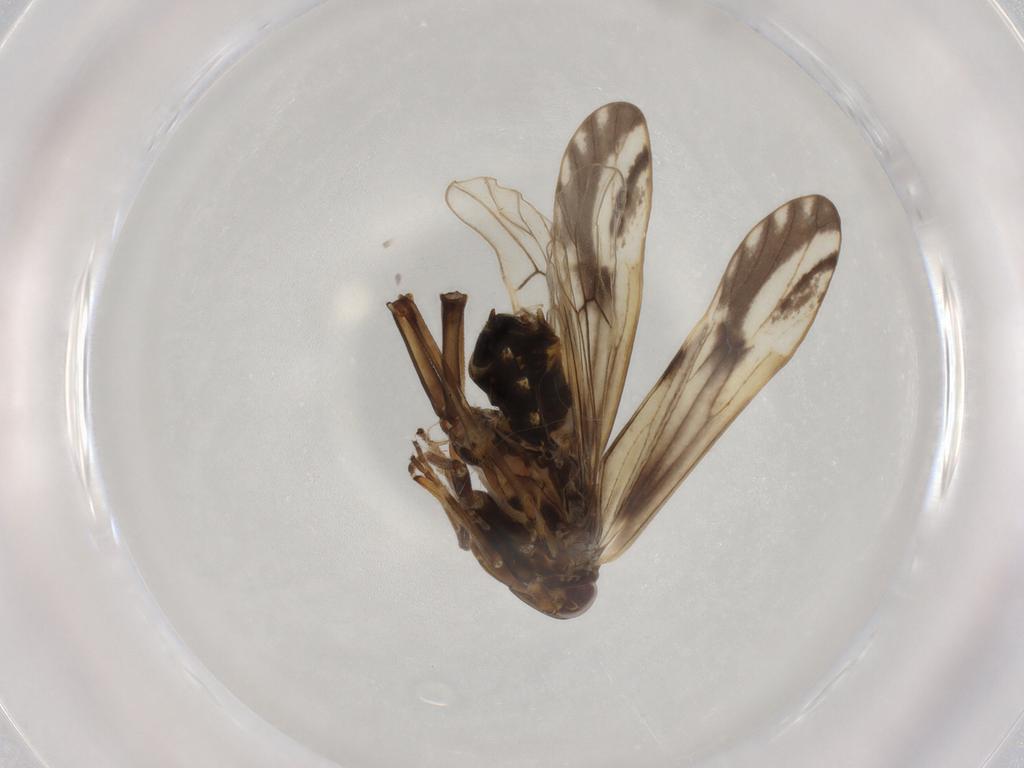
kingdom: Animalia
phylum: Arthropoda
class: Insecta
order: Hemiptera
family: Delphacidae
